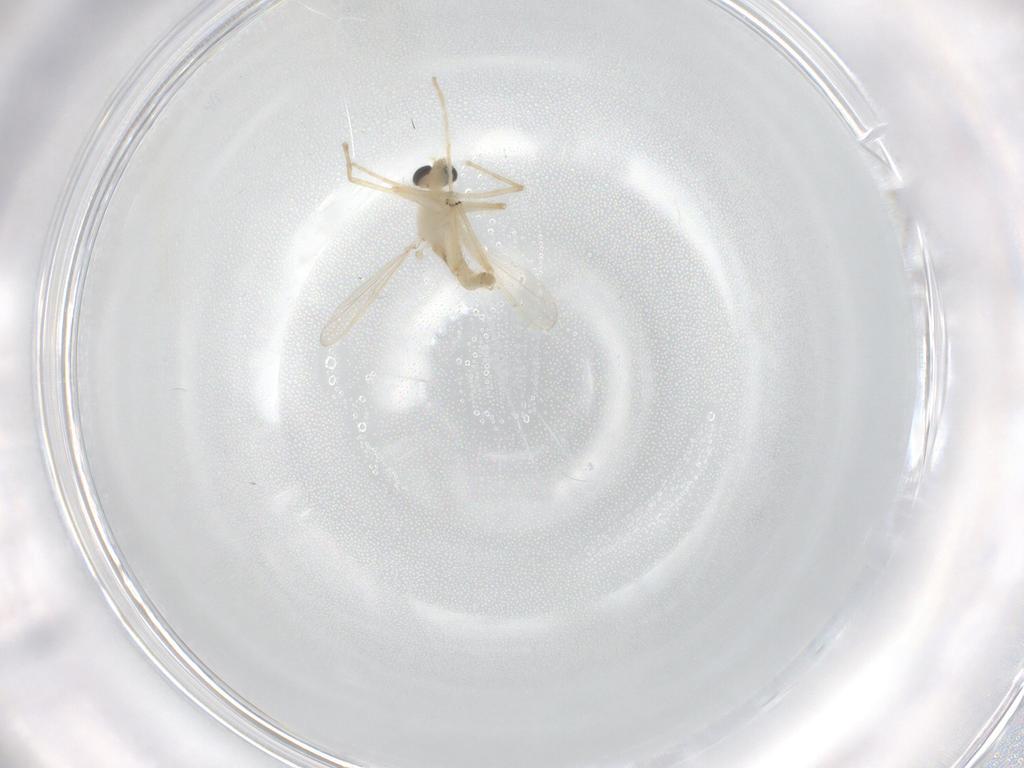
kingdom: Animalia
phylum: Arthropoda
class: Insecta
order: Diptera
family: Chironomidae
